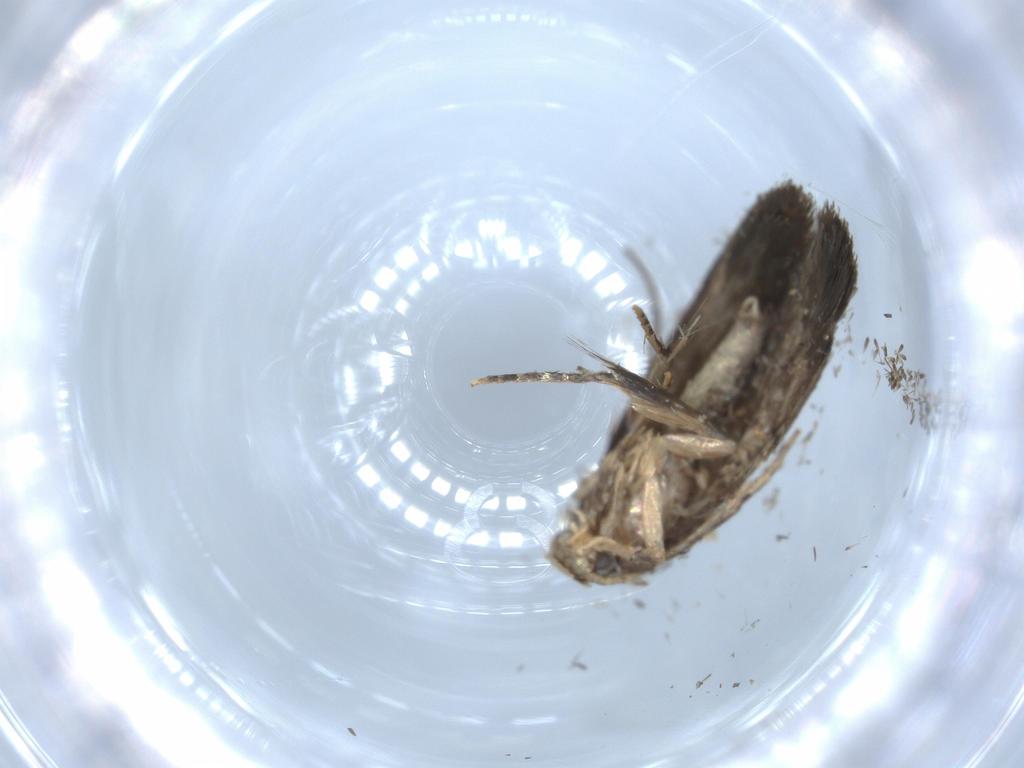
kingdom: Animalia
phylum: Arthropoda
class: Insecta
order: Lepidoptera
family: Tineidae
